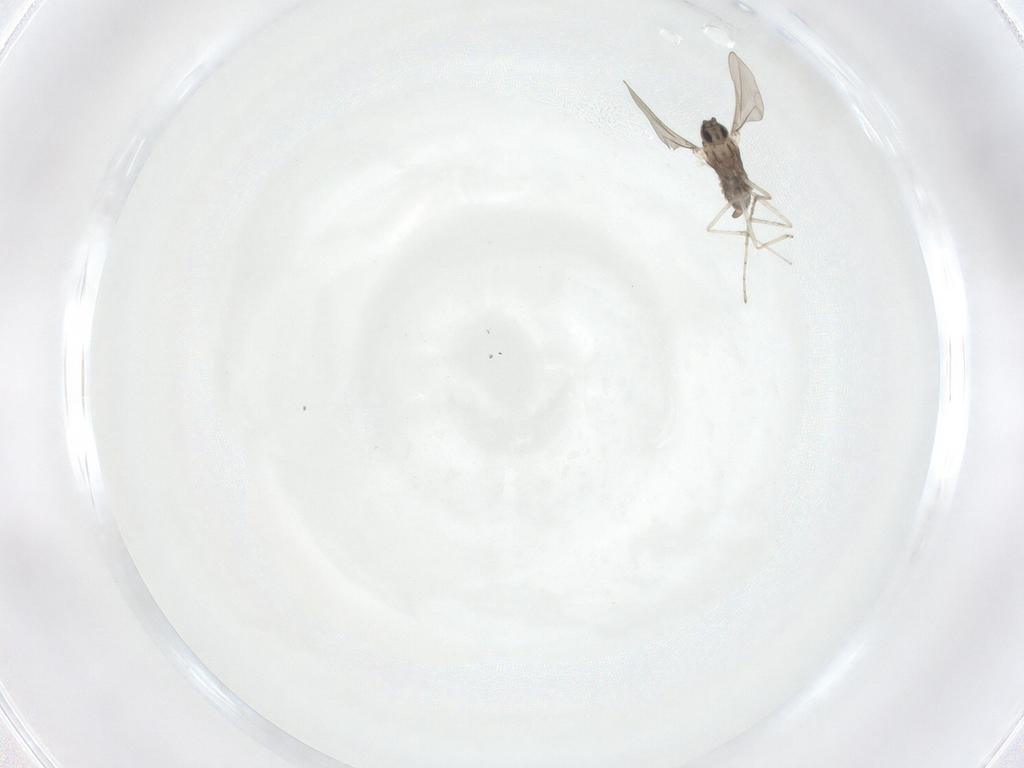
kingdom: Animalia
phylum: Arthropoda
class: Insecta
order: Diptera
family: Cecidomyiidae
